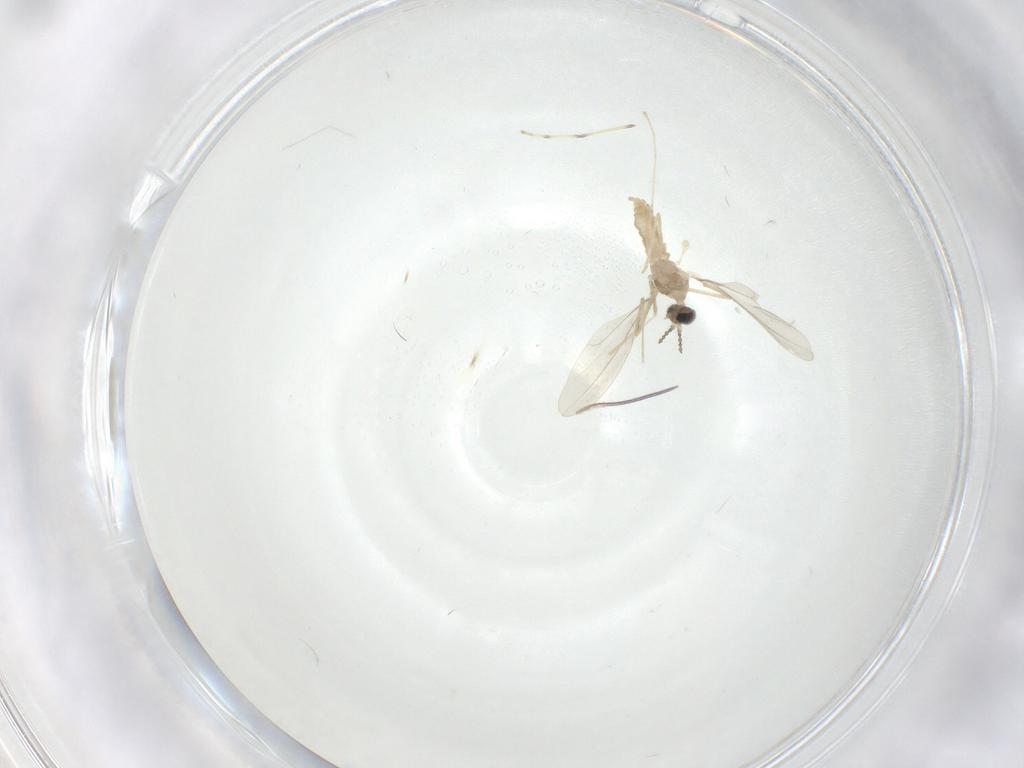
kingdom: Animalia
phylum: Arthropoda
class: Insecta
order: Diptera
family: Cecidomyiidae
